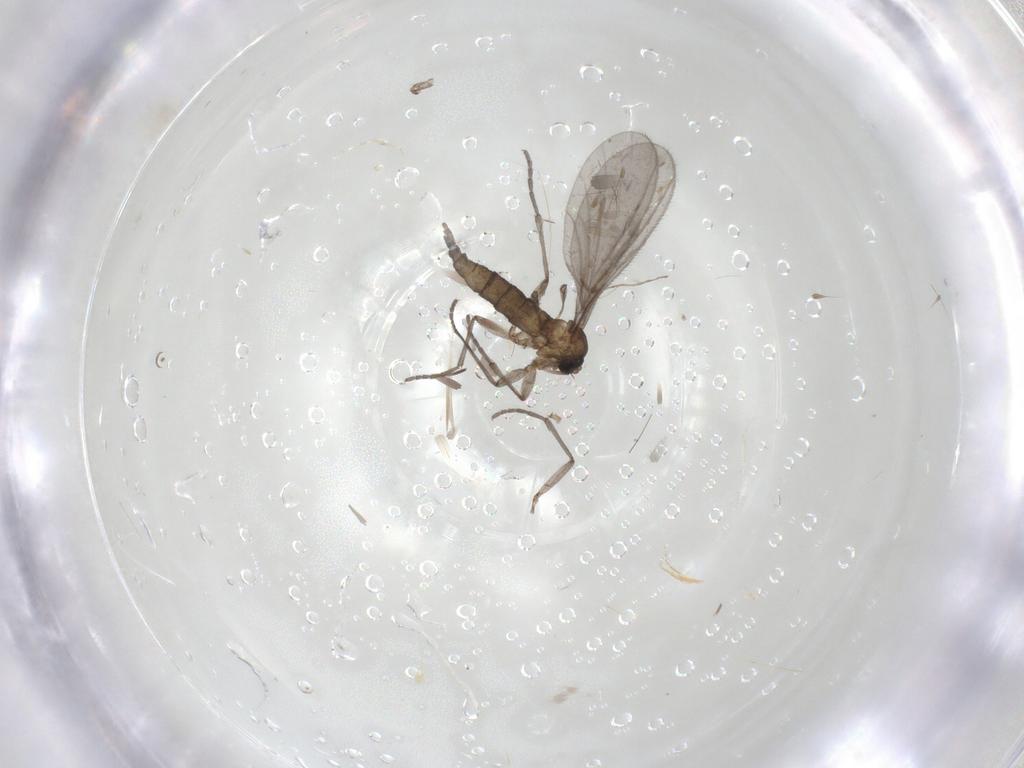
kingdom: Animalia
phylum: Arthropoda
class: Insecta
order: Diptera
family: Sciaridae
